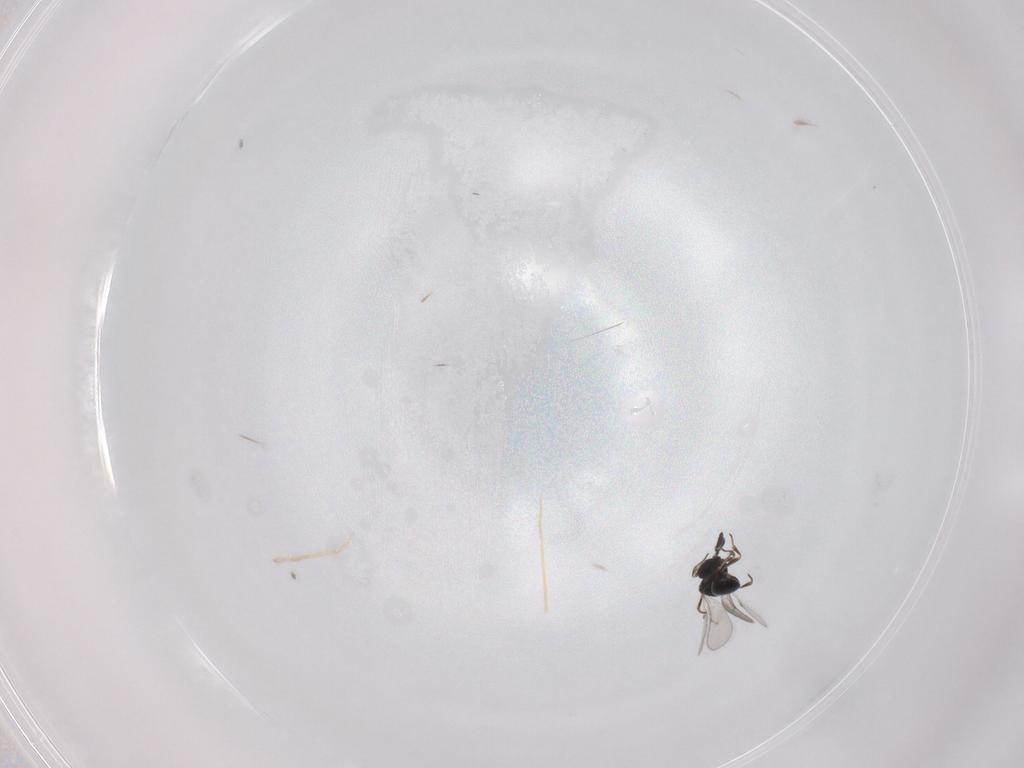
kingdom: Animalia
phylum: Arthropoda
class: Insecta
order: Hymenoptera
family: Scelionidae
